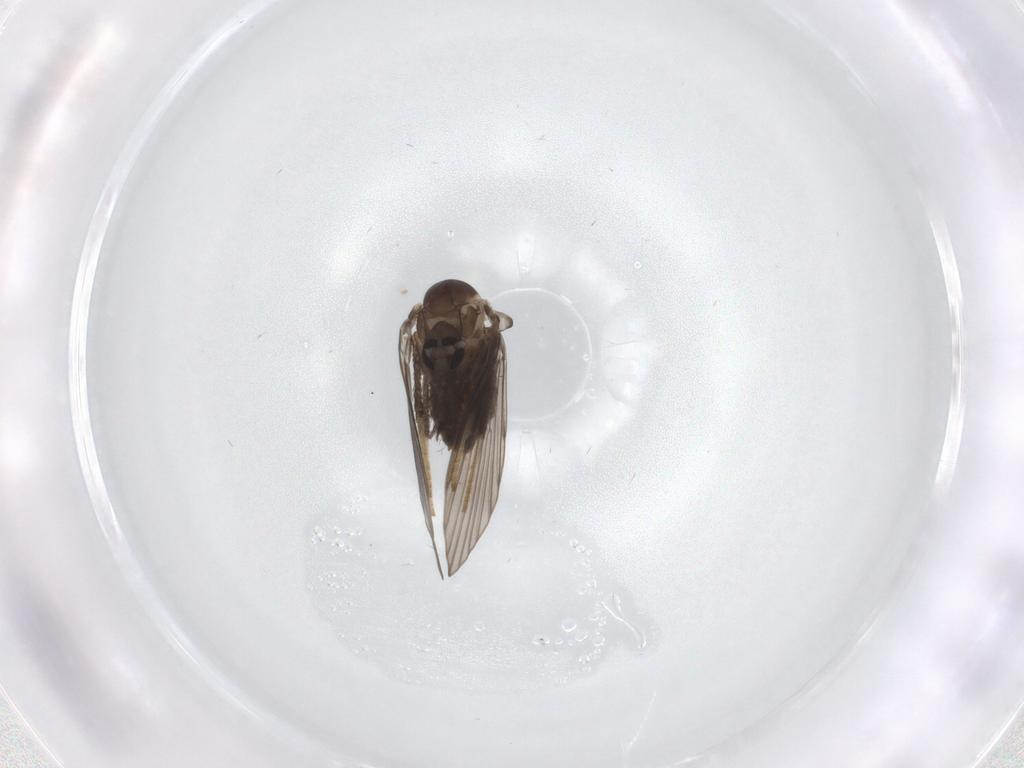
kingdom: Animalia
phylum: Arthropoda
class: Insecta
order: Diptera
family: Psychodidae
